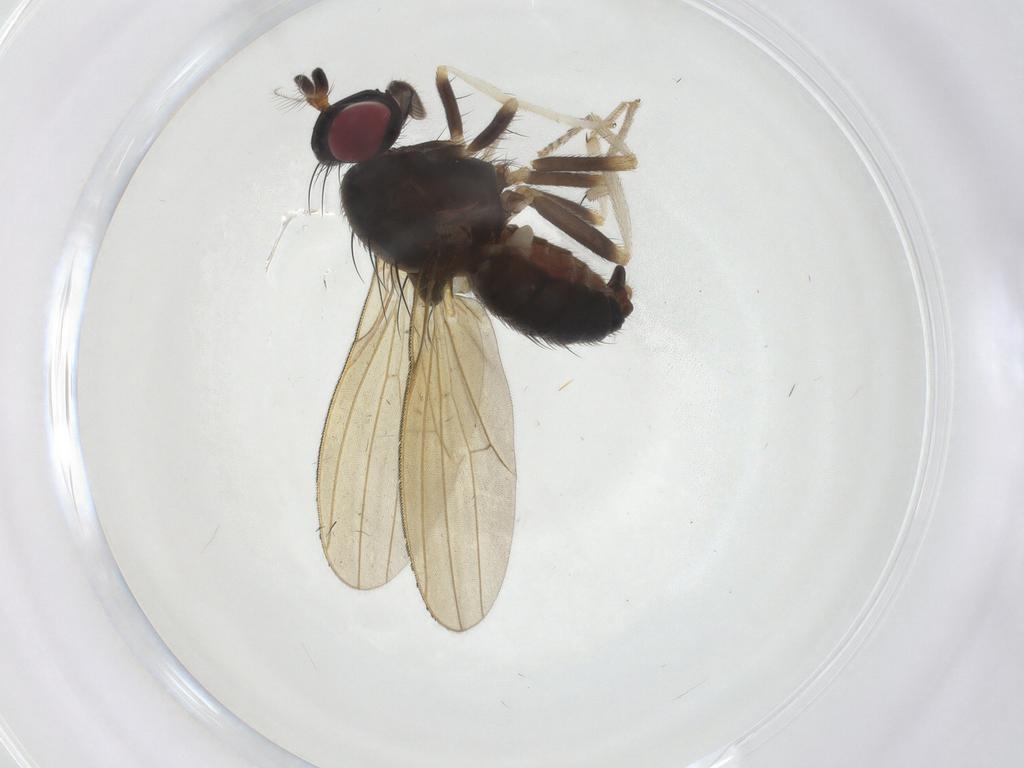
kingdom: Animalia
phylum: Arthropoda
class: Insecta
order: Diptera
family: Lauxaniidae
